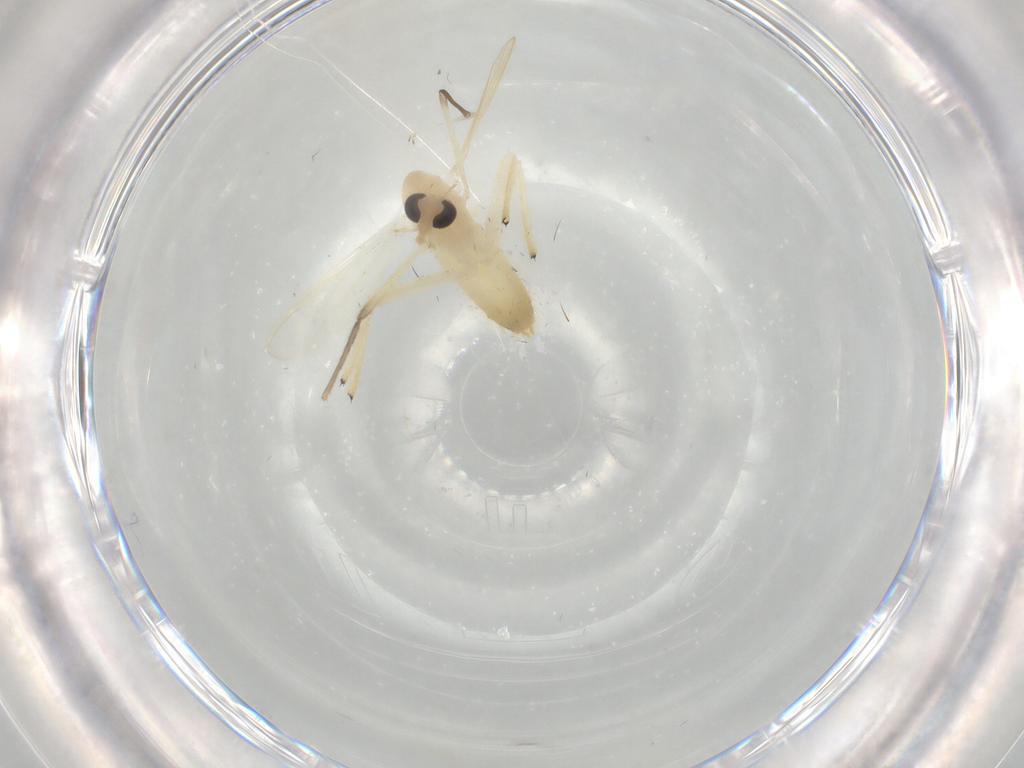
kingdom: Animalia
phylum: Arthropoda
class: Insecta
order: Diptera
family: Chironomidae
